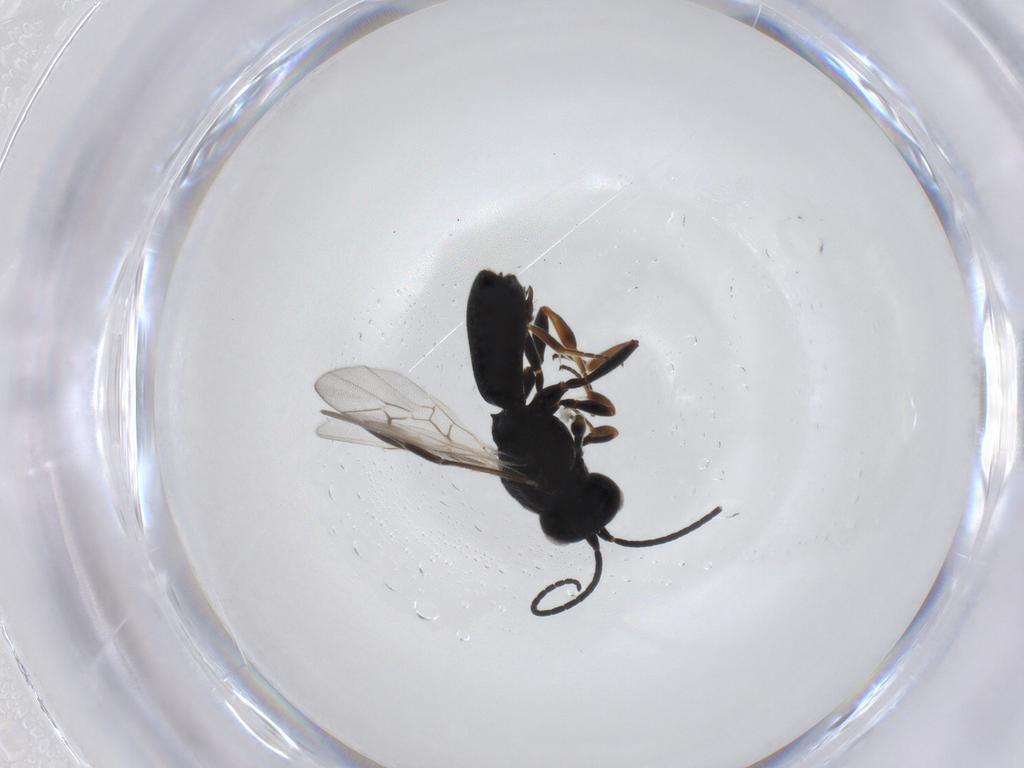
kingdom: Animalia
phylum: Arthropoda
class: Insecta
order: Hymenoptera
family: Braconidae
